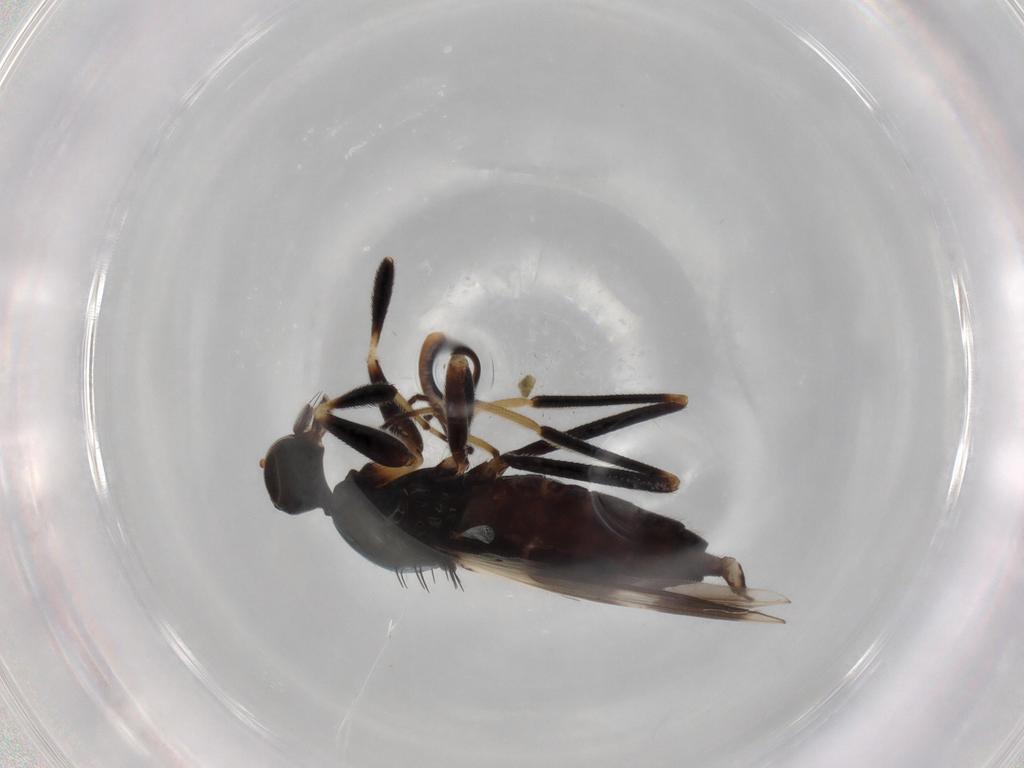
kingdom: Animalia
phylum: Arthropoda
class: Insecta
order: Diptera
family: Hybotidae
